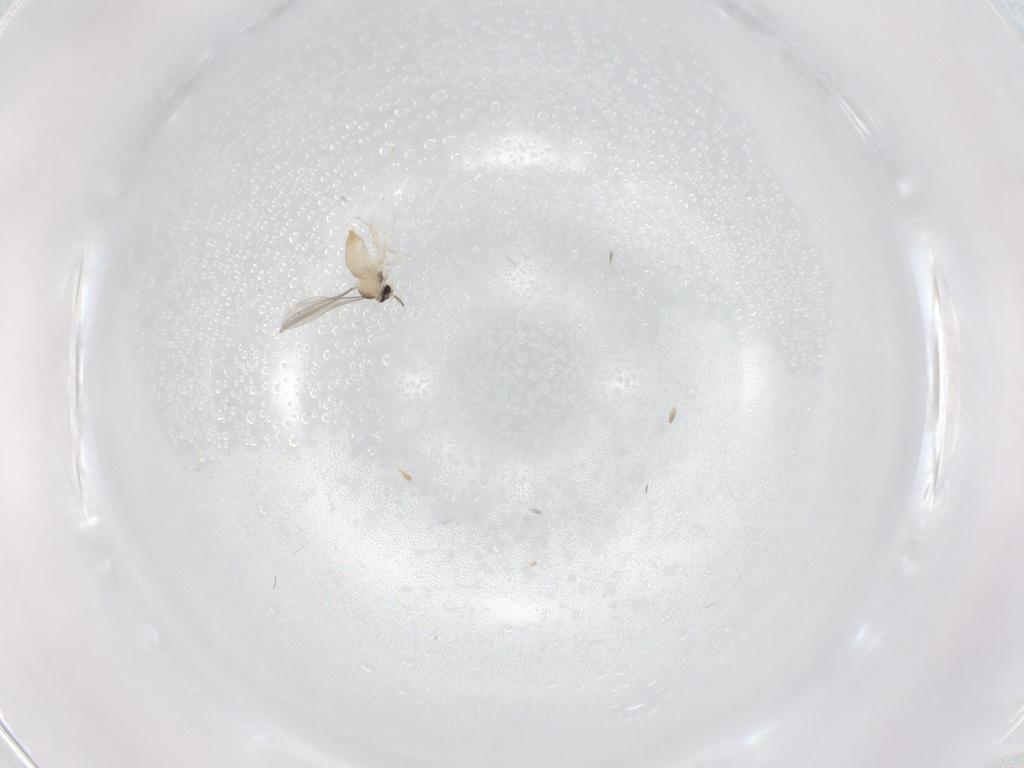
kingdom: Animalia
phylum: Arthropoda
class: Insecta
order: Diptera
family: Cecidomyiidae
